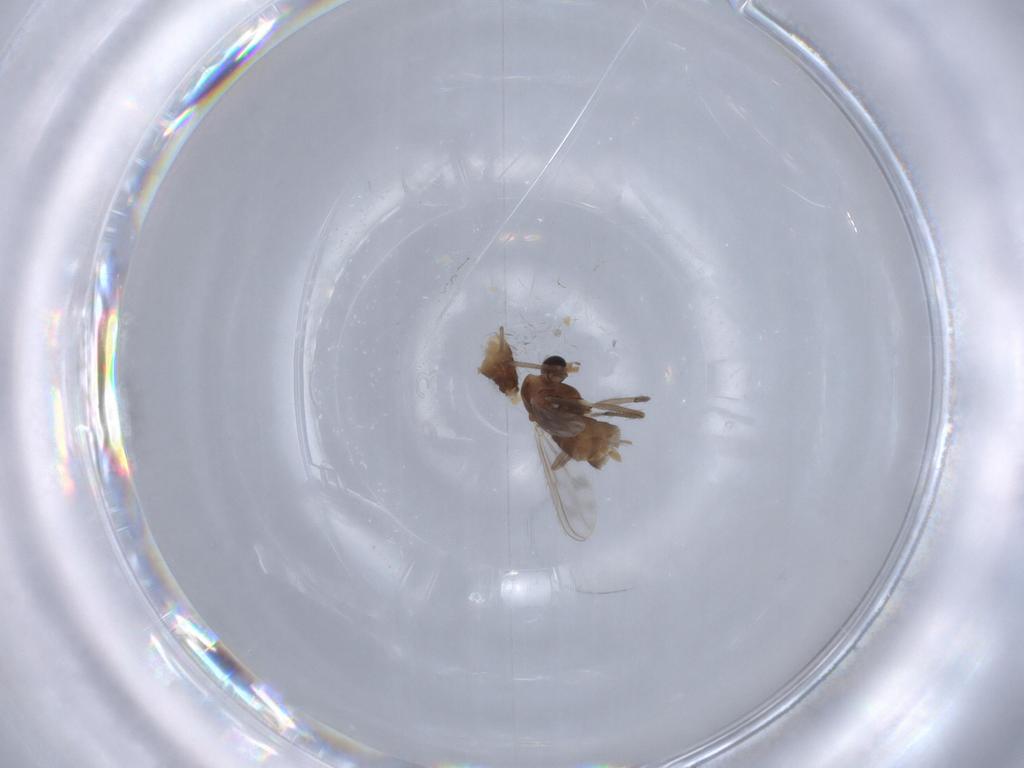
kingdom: Animalia
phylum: Arthropoda
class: Insecta
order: Diptera
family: Chironomidae
